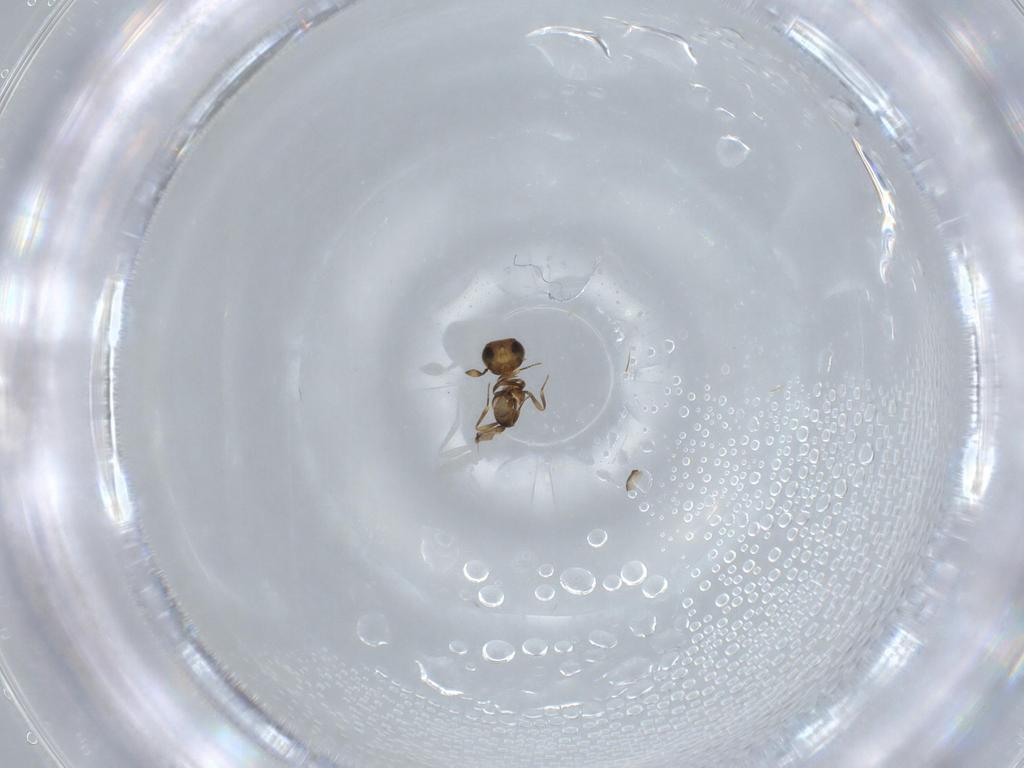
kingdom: Animalia
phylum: Arthropoda
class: Insecta
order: Hymenoptera
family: Scelionidae
